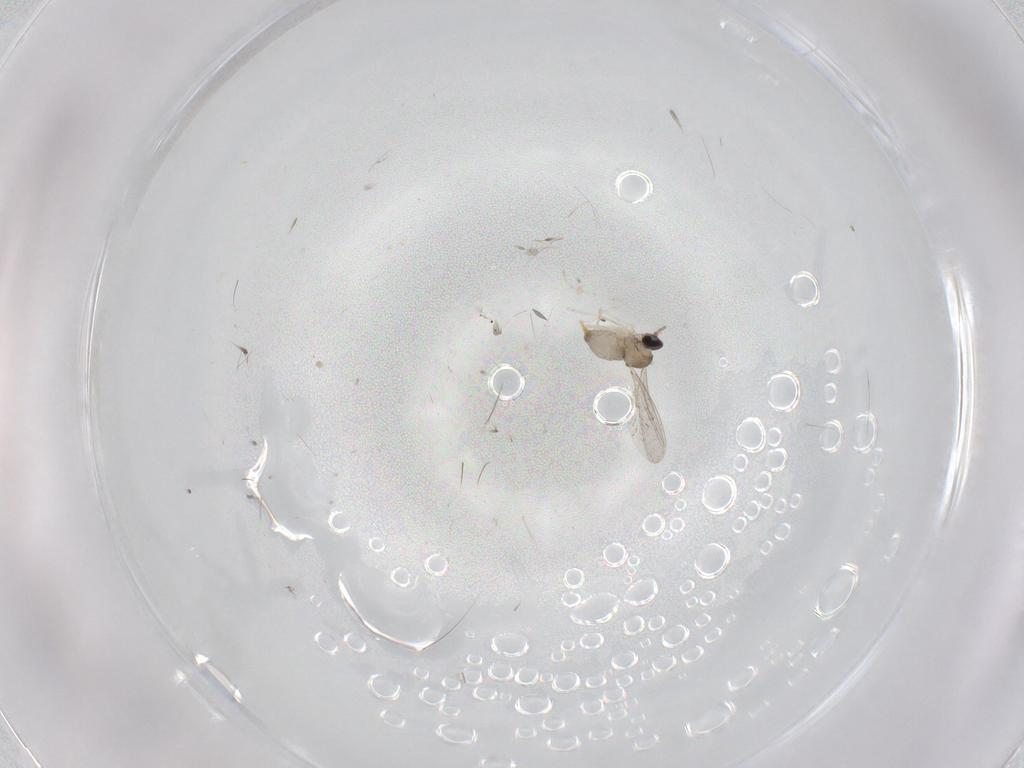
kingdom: Animalia
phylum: Arthropoda
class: Insecta
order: Diptera
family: Cecidomyiidae
